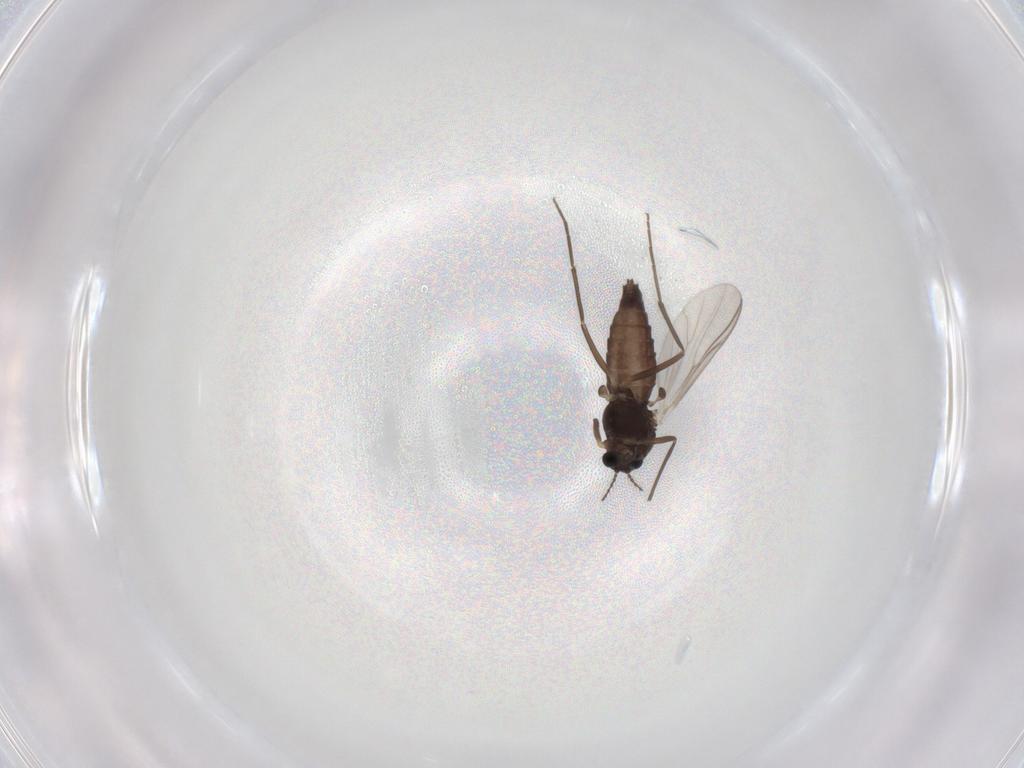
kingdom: Animalia
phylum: Arthropoda
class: Insecta
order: Diptera
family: Chironomidae
